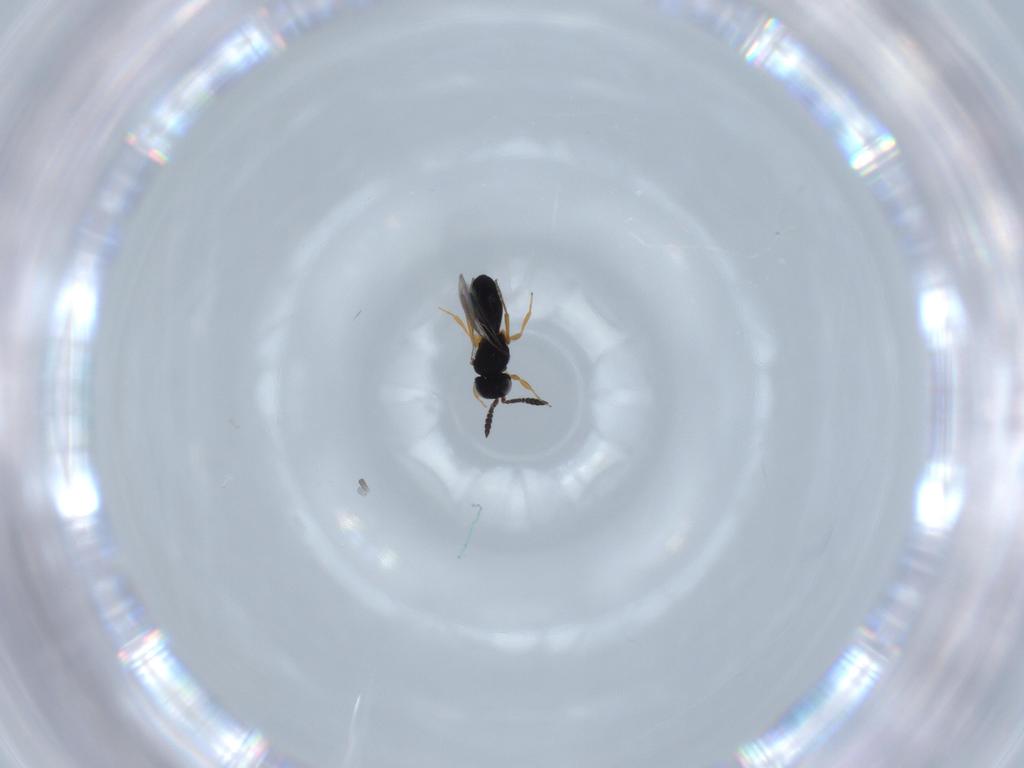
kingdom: Animalia
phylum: Arthropoda
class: Insecta
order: Hymenoptera
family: Scelionidae
